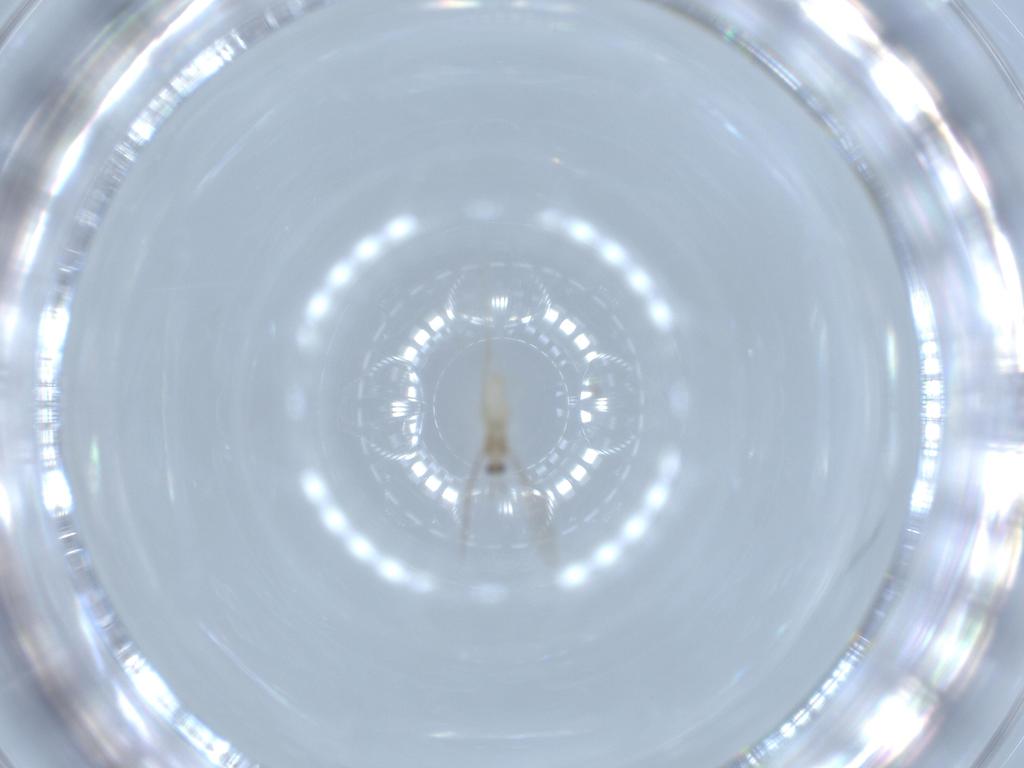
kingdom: Animalia
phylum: Arthropoda
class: Insecta
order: Diptera
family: Cecidomyiidae
